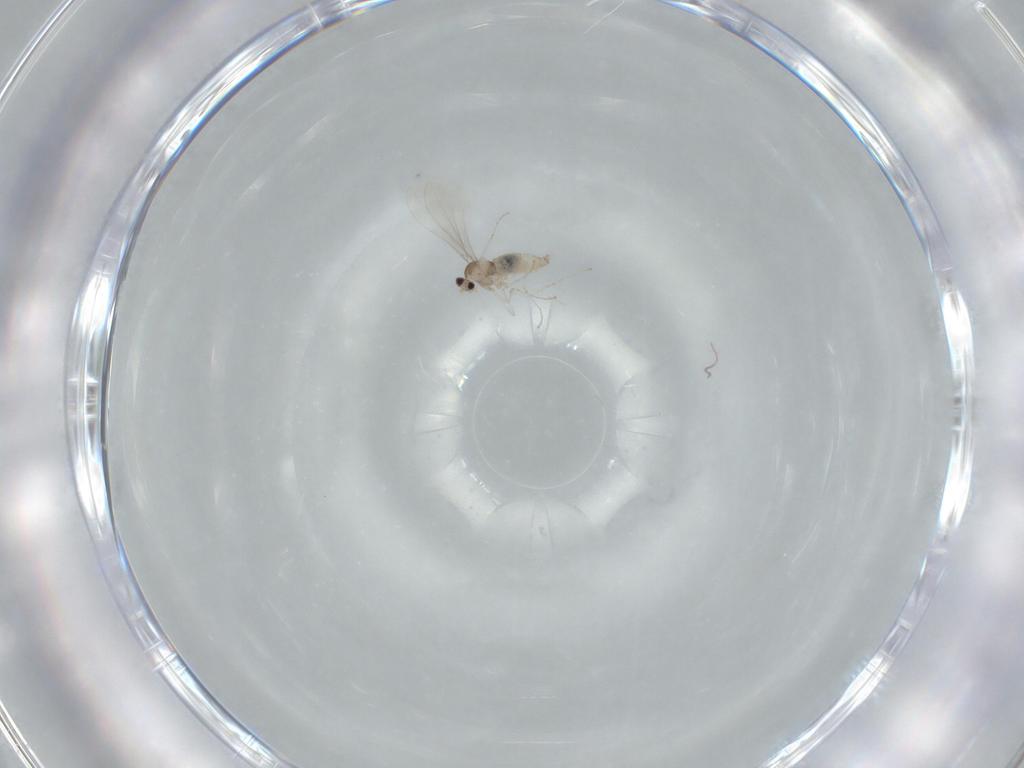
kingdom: Animalia
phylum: Arthropoda
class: Insecta
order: Diptera
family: Cecidomyiidae
